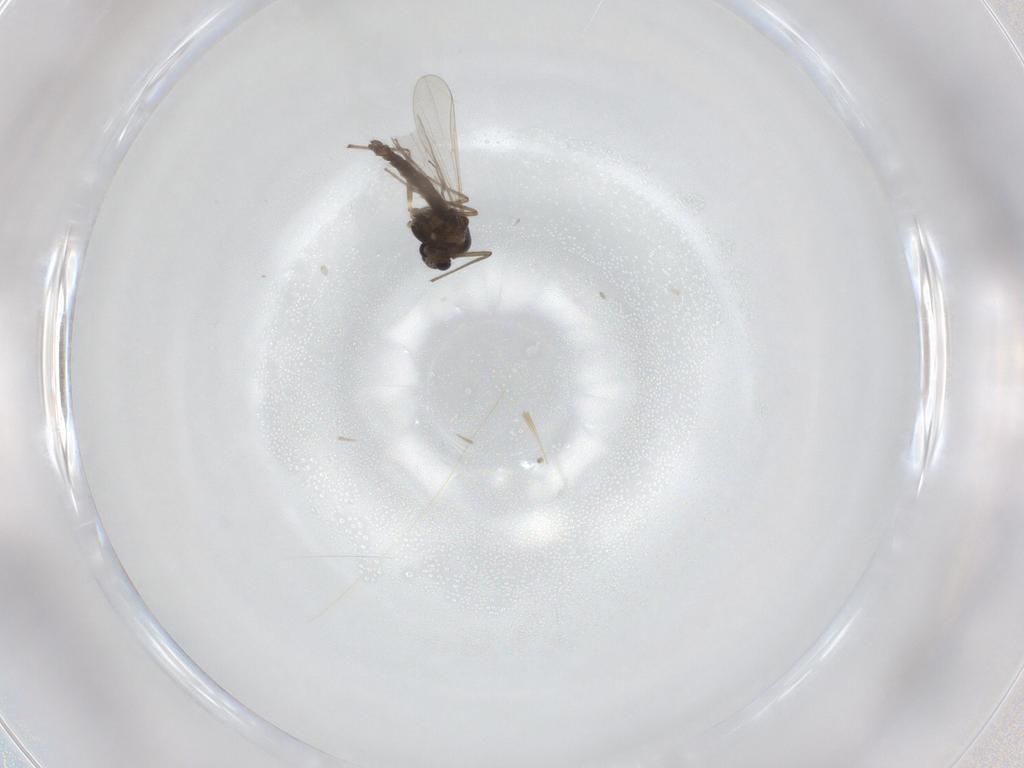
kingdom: Animalia
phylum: Arthropoda
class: Insecta
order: Diptera
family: Chironomidae
